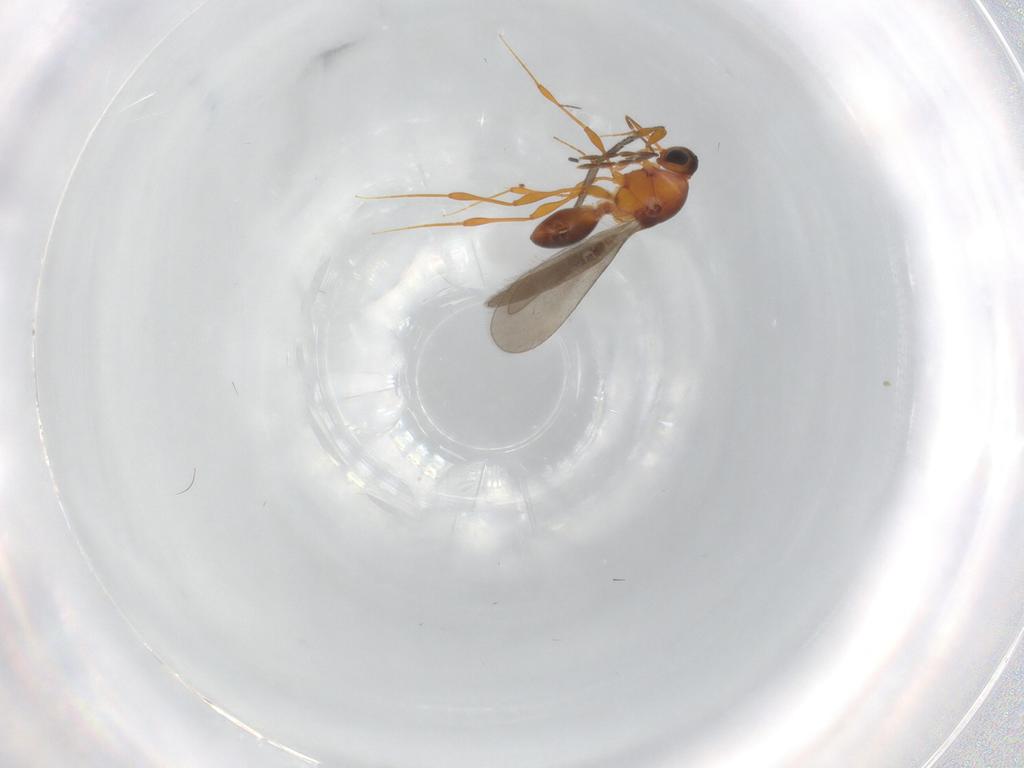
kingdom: Animalia
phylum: Arthropoda
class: Insecta
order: Hymenoptera
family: Platygastridae
